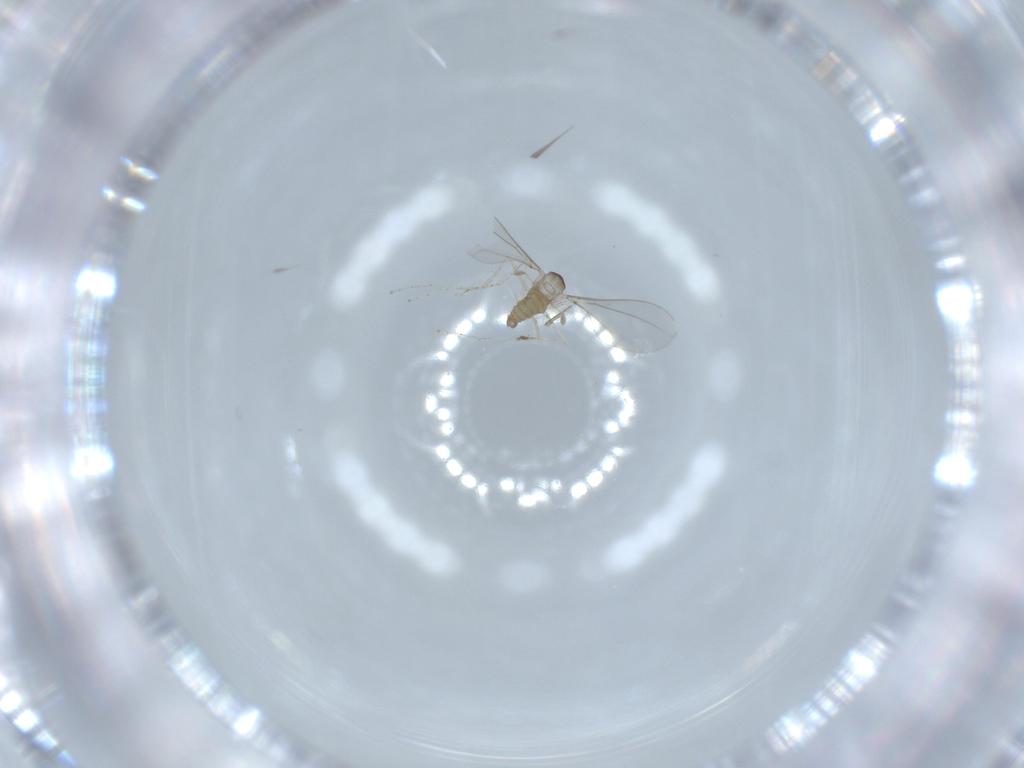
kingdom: Animalia
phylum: Arthropoda
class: Insecta
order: Diptera
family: Cecidomyiidae
